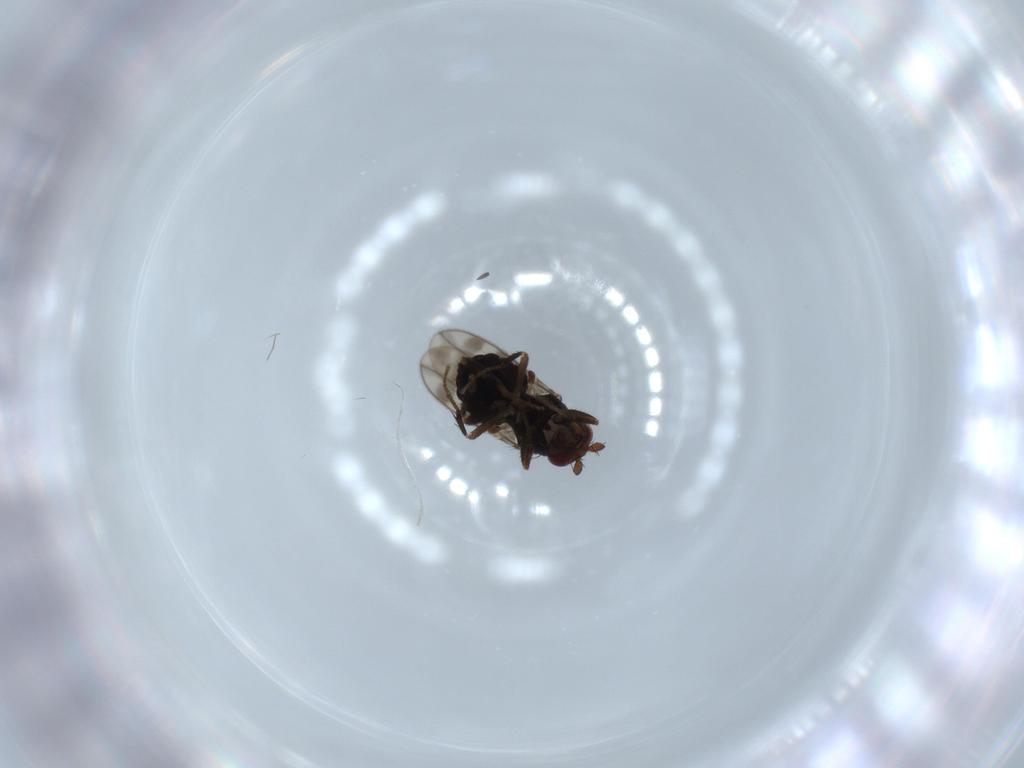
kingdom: Animalia
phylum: Arthropoda
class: Insecta
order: Diptera
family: Sphaeroceridae
